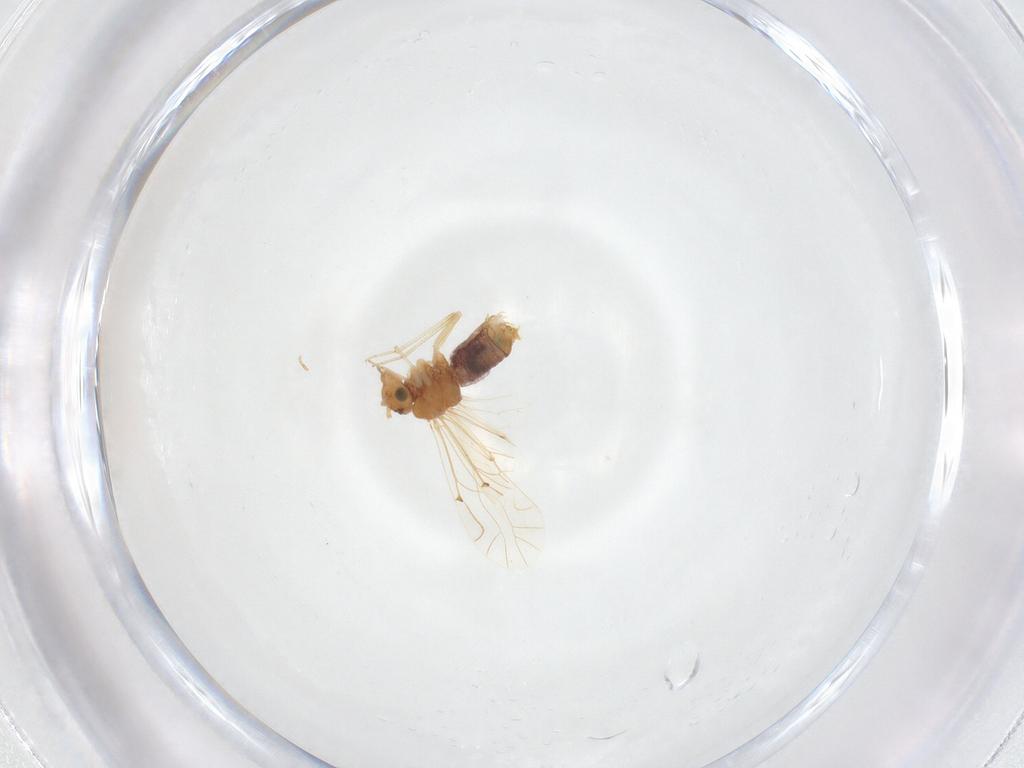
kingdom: Animalia
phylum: Arthropoda
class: Insecta
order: Psocodea
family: Lachesillidae
